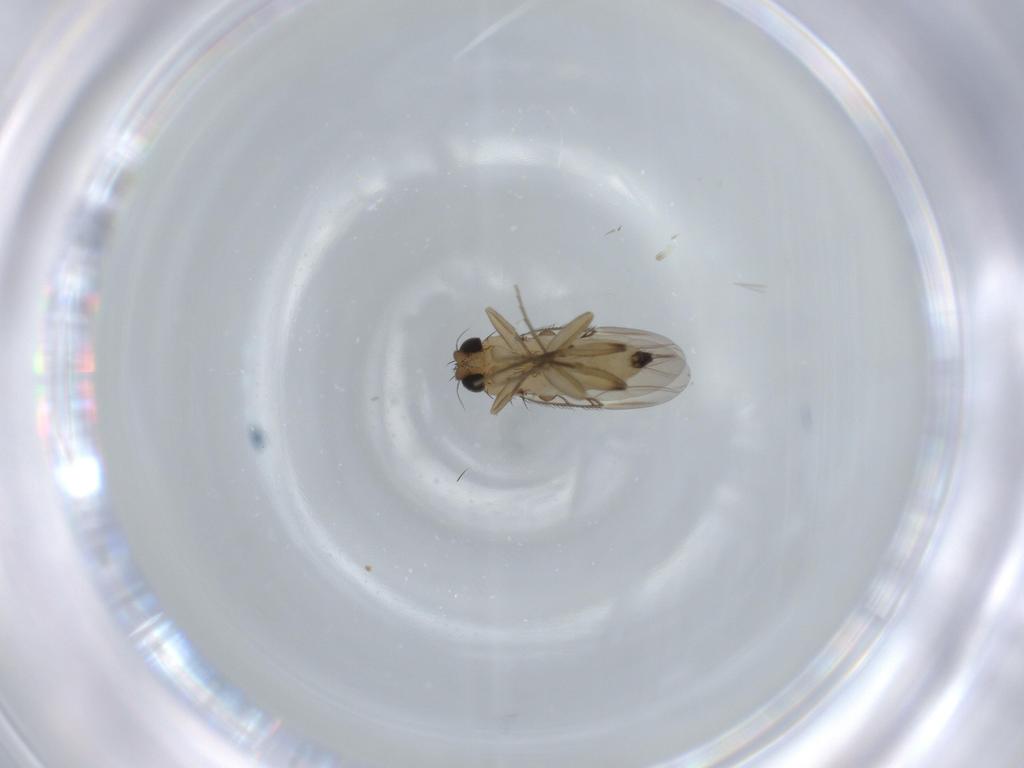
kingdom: Animalia
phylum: Arthropoda
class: Insecta
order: Diptera
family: Phoridae
